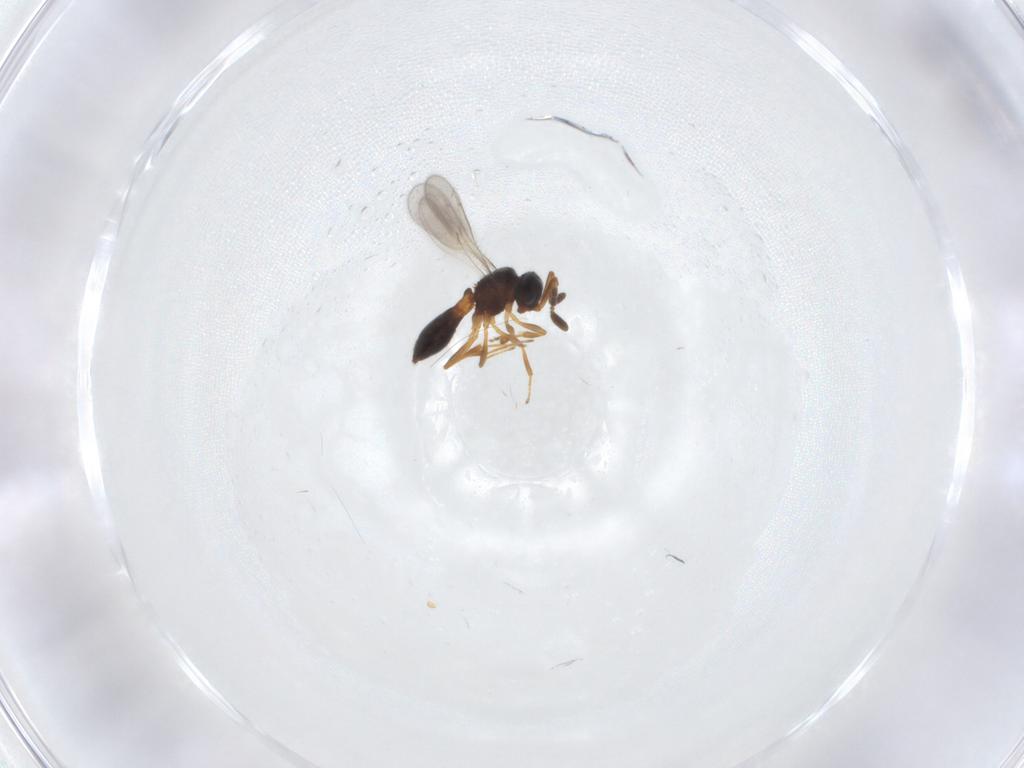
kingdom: Animalia
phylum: Arthropoda
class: Insecta
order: Hymenoptera
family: Scelionidae
